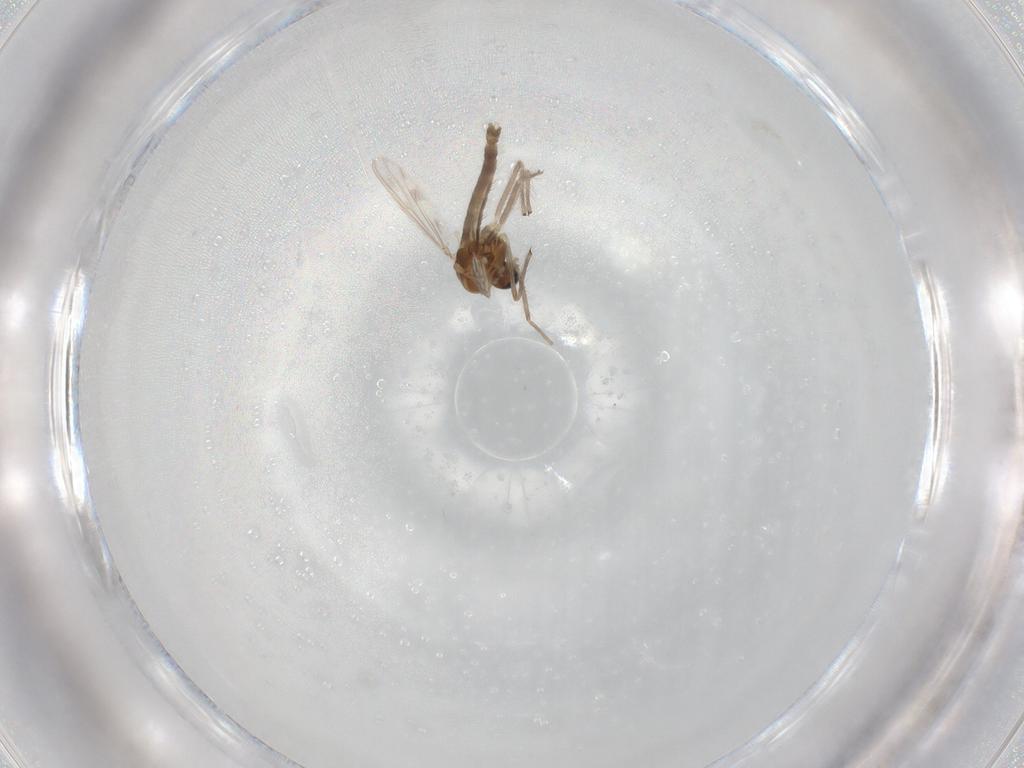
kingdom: Animalia
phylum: Arthropoda
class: Insecta
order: Diptera
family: Chironomidae
